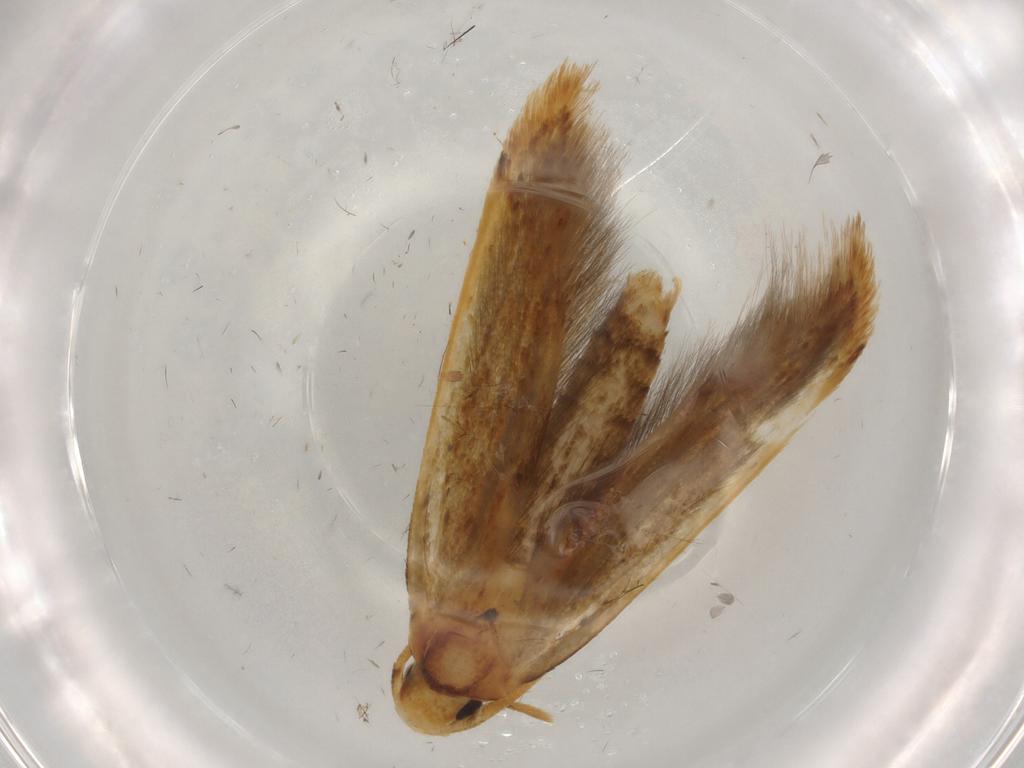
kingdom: Animalia
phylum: Arthropoda
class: Insecta
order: Lepidoptera
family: Tineidae
